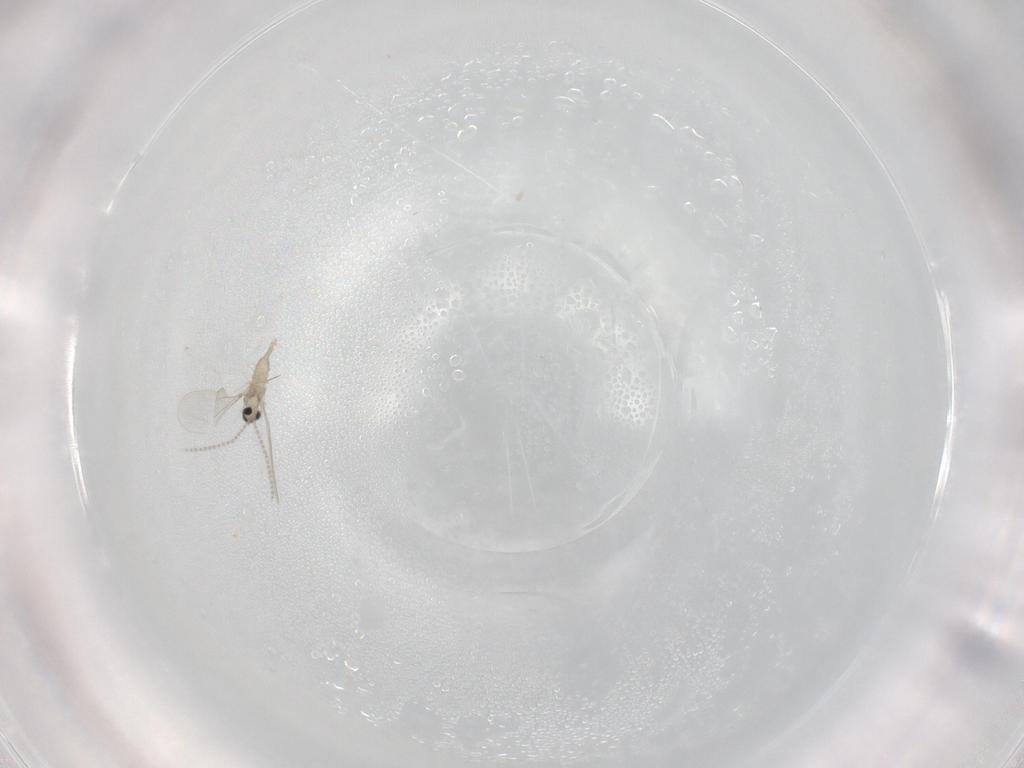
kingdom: Animalia
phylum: Arthropoda
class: Insecta
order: Diptera
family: Cecidomyiidae
